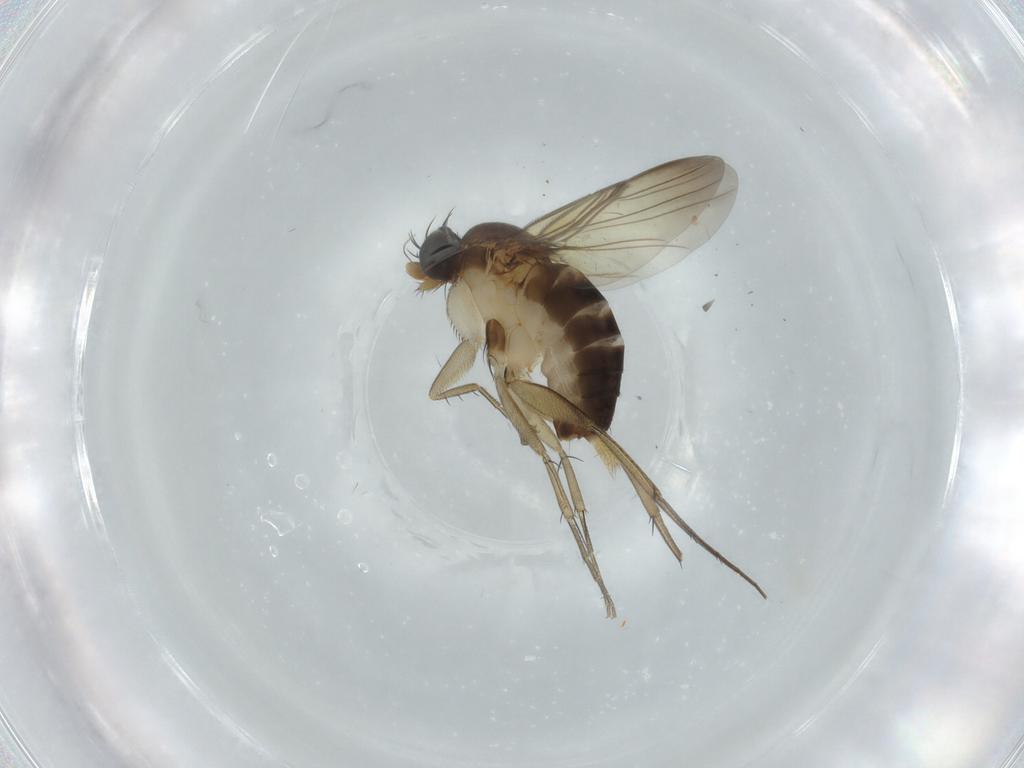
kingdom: Animalia
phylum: Arthropoda
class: Insecta
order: Diptera
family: Phoridae
